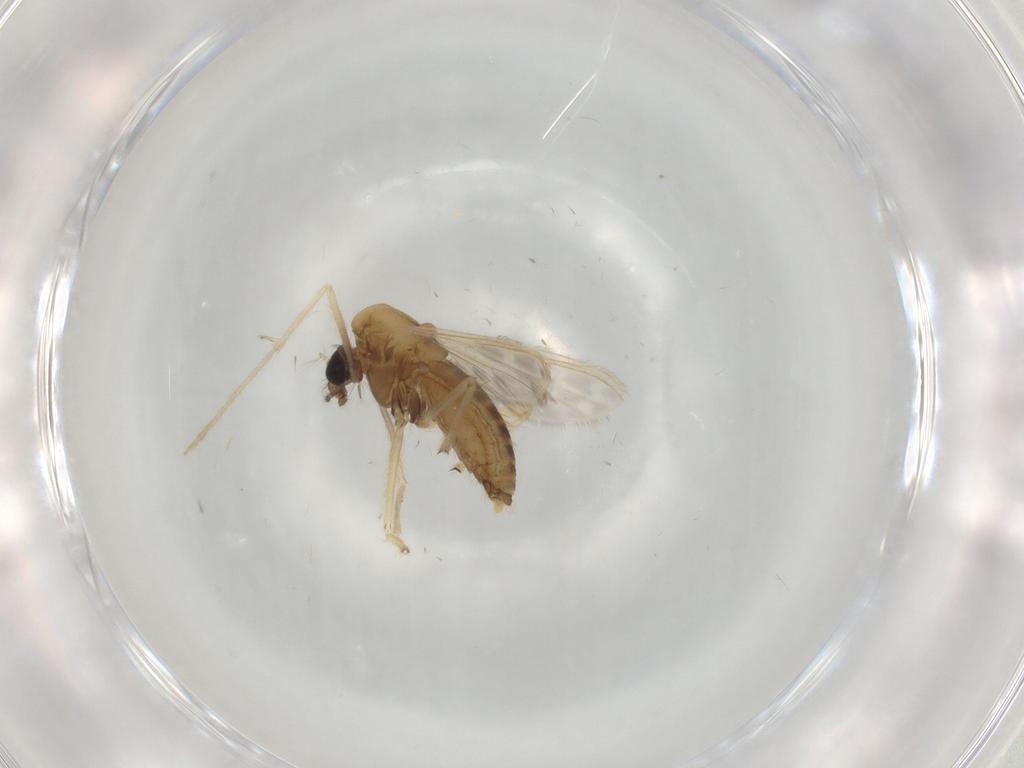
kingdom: Animalia
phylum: Arthropoda
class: Insecta
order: Diptera
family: Chironomidae
